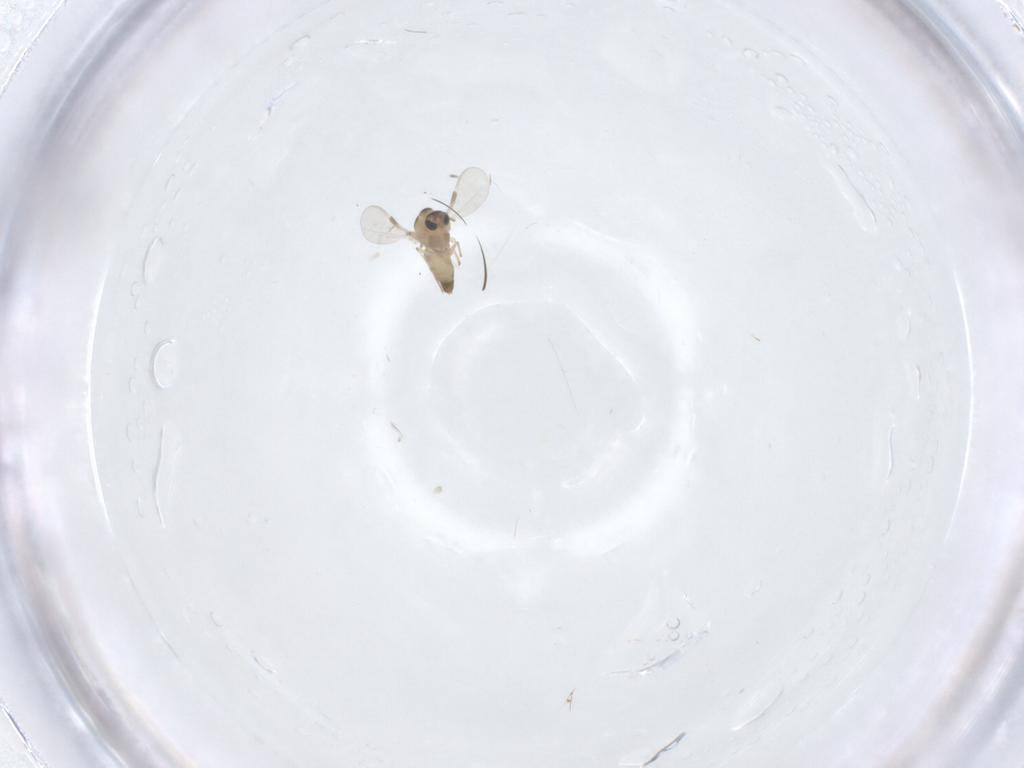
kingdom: Animalia
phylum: Arthropoda
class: Insecta
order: Diptera
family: Chironomidae
